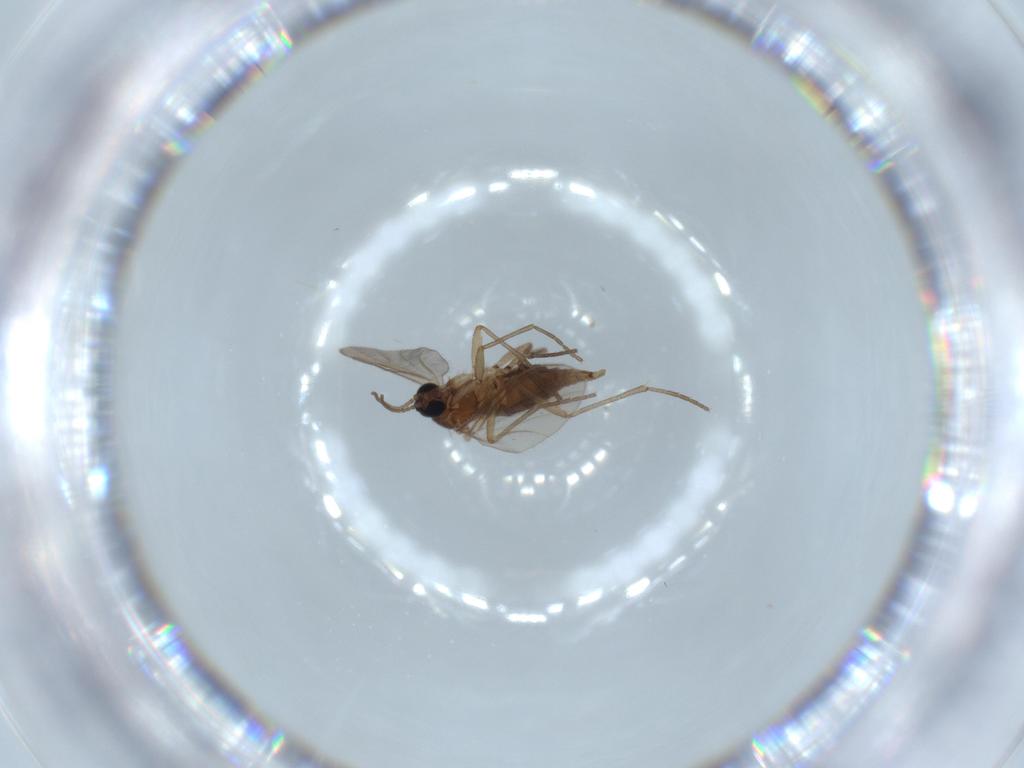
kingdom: Animalia
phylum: Arthropoda
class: Insecta
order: Diptera
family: Sciaridae
